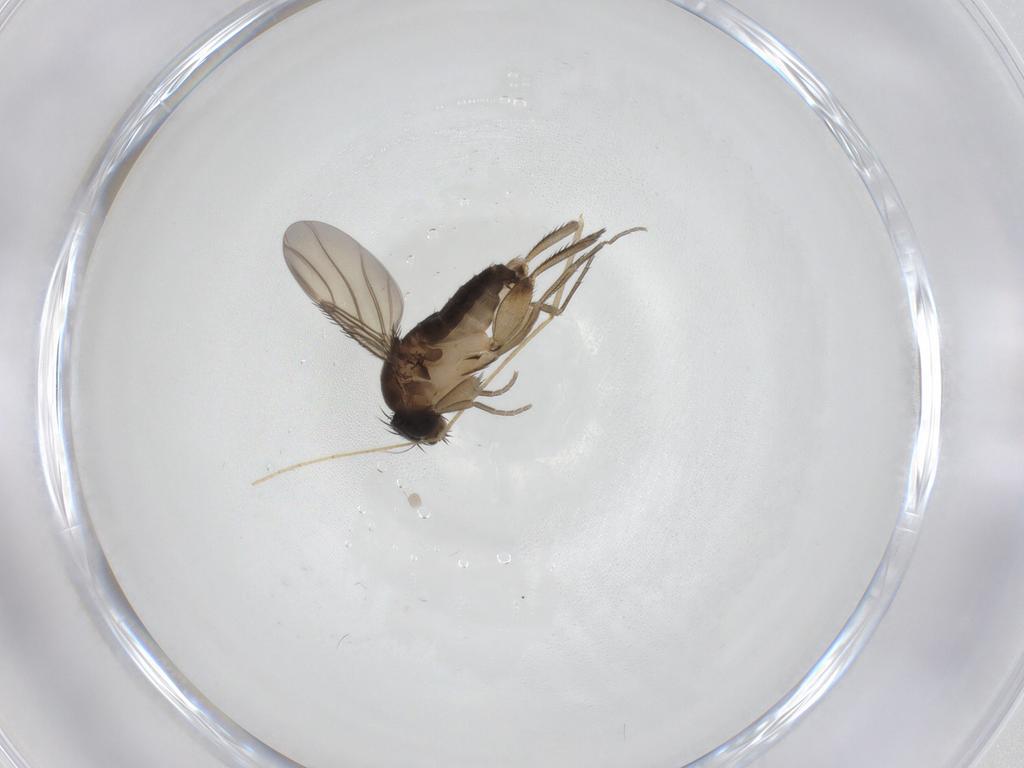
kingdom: Animalia
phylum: Arthropoda
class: Insecta
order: Diptera
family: Phoridae
